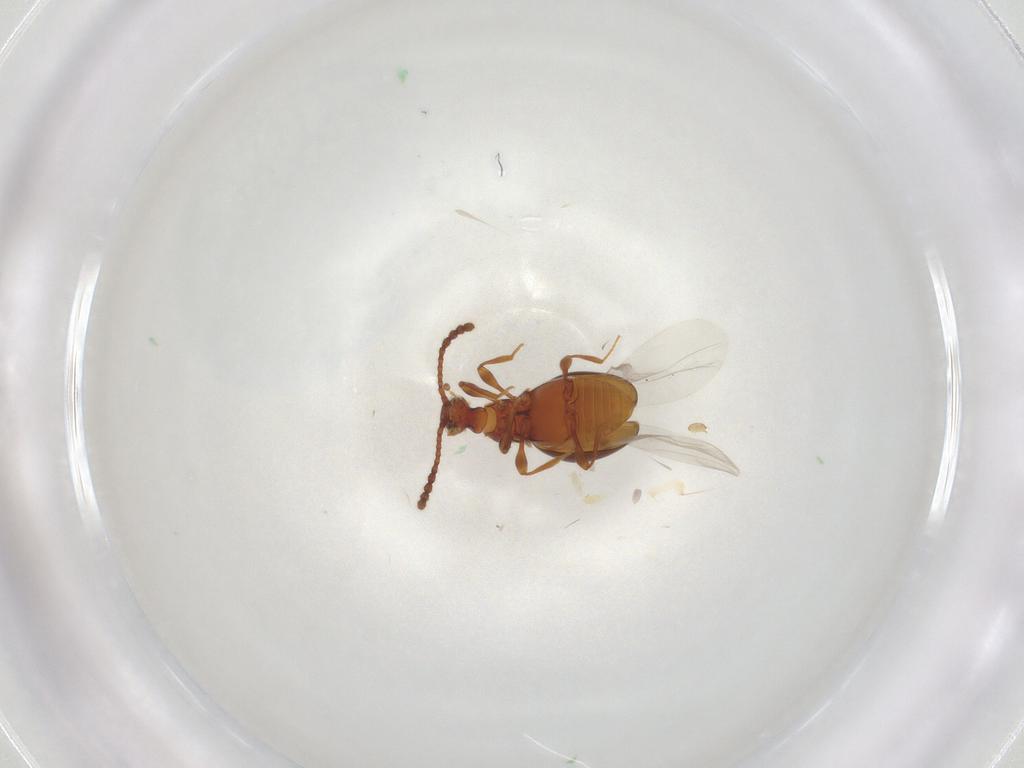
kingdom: Animalia
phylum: Arthropoda
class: Insecta
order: Coleoptera
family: Staphylinidae
